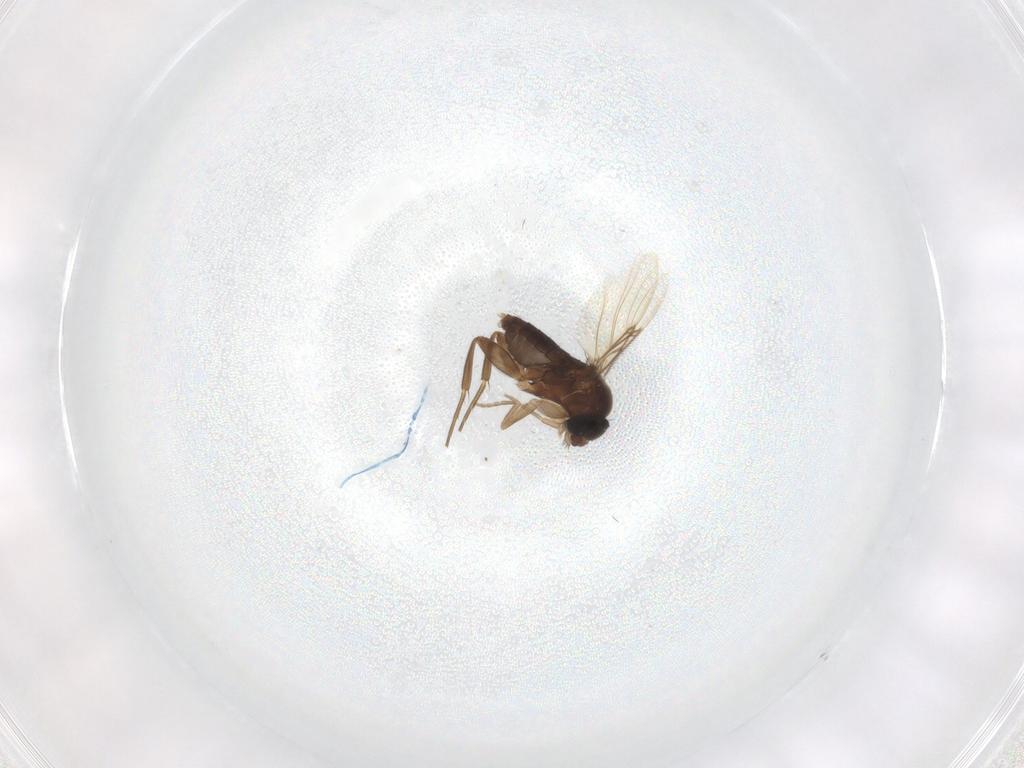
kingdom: Animalia
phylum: Arthropoda
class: Insecta
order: Diptera
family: Phoridae
